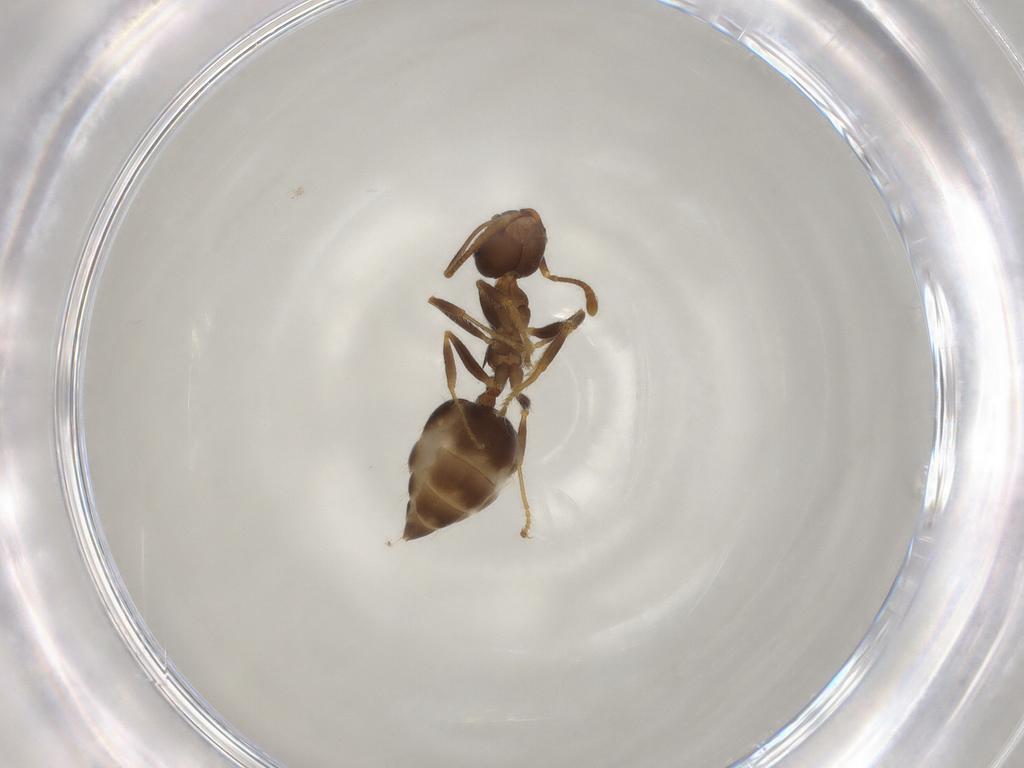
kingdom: Animalia
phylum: Arthropoda
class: Insecta
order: Hymenoptera
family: Formicidae
